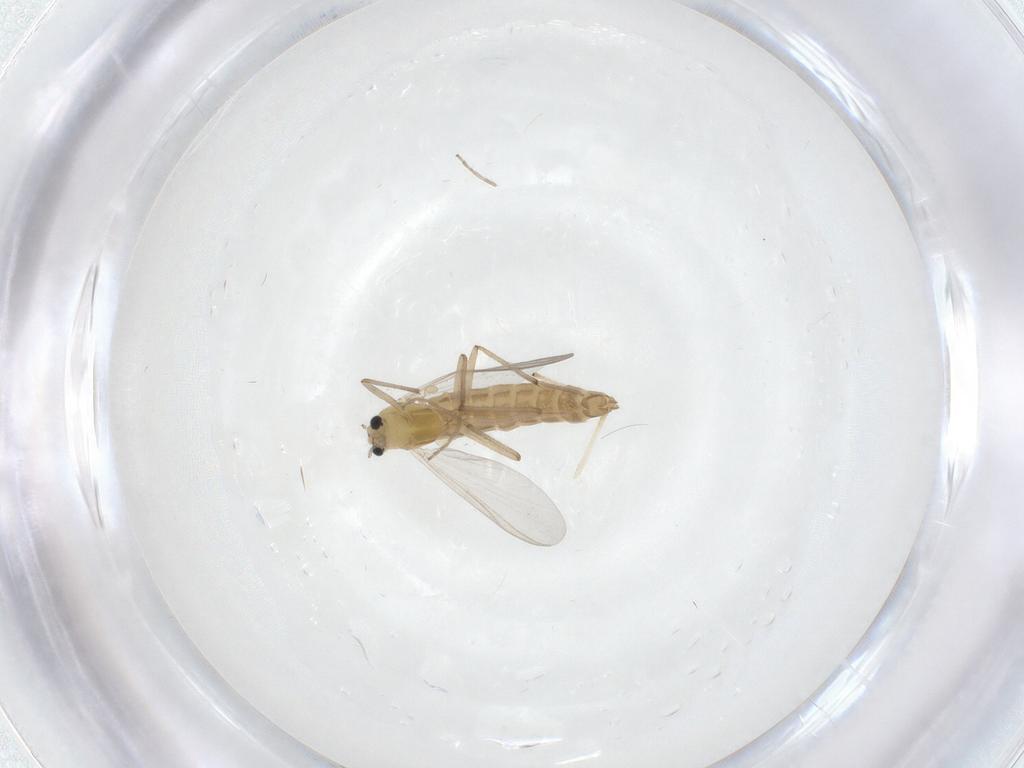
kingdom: Animalia
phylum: Arthropoda
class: Insecta
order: Diptera
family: Chironomidae
